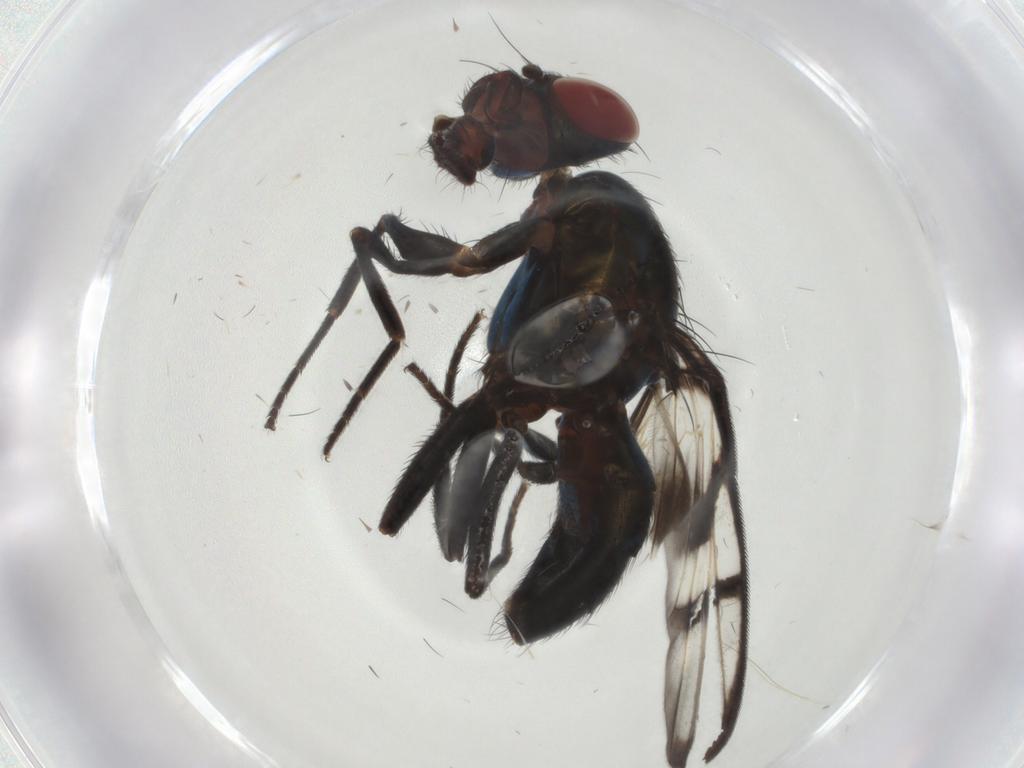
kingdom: Animalia
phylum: Arthropoda
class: Insecta
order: Diptera
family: Ulidiidae
